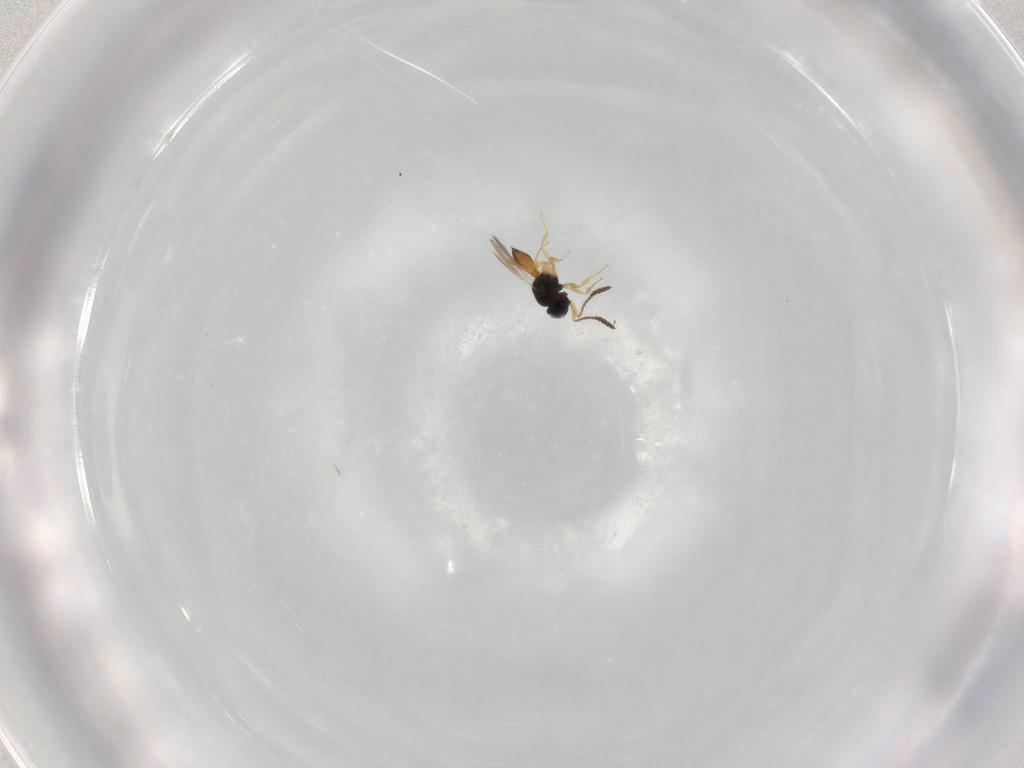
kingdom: Animalia
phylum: Arthropoda
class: Insecta
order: Hymenoptera
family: Scelionidae
